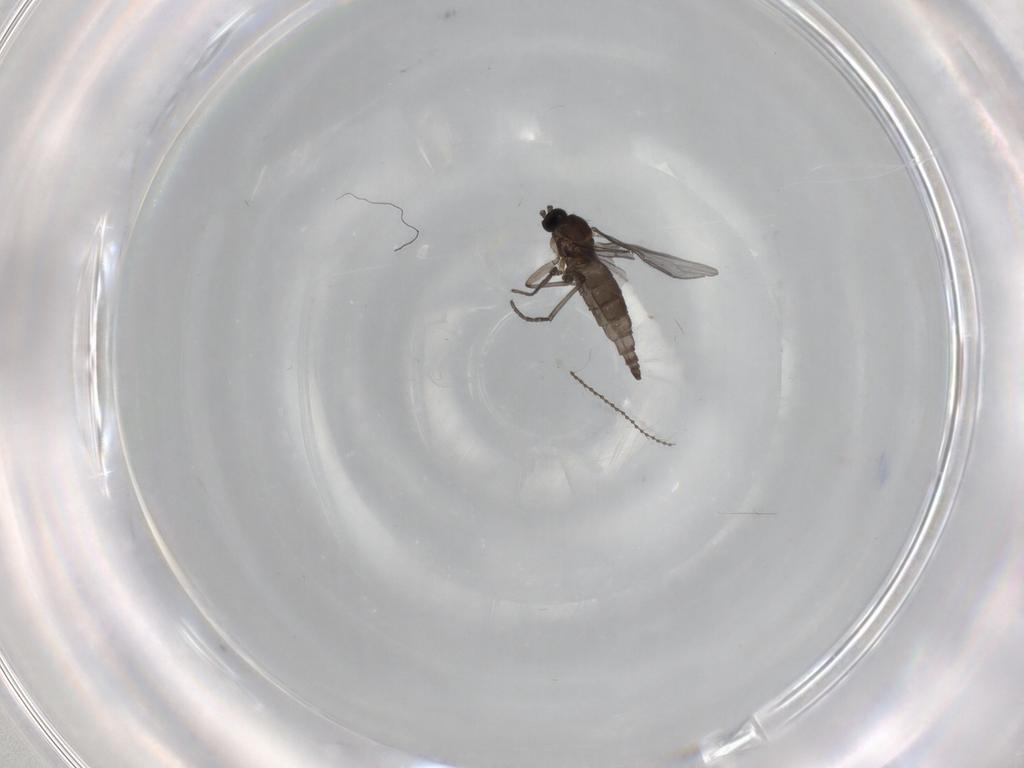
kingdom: Animalia
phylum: Arthropoda
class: Insecta
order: Diptera
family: Sciaridae
